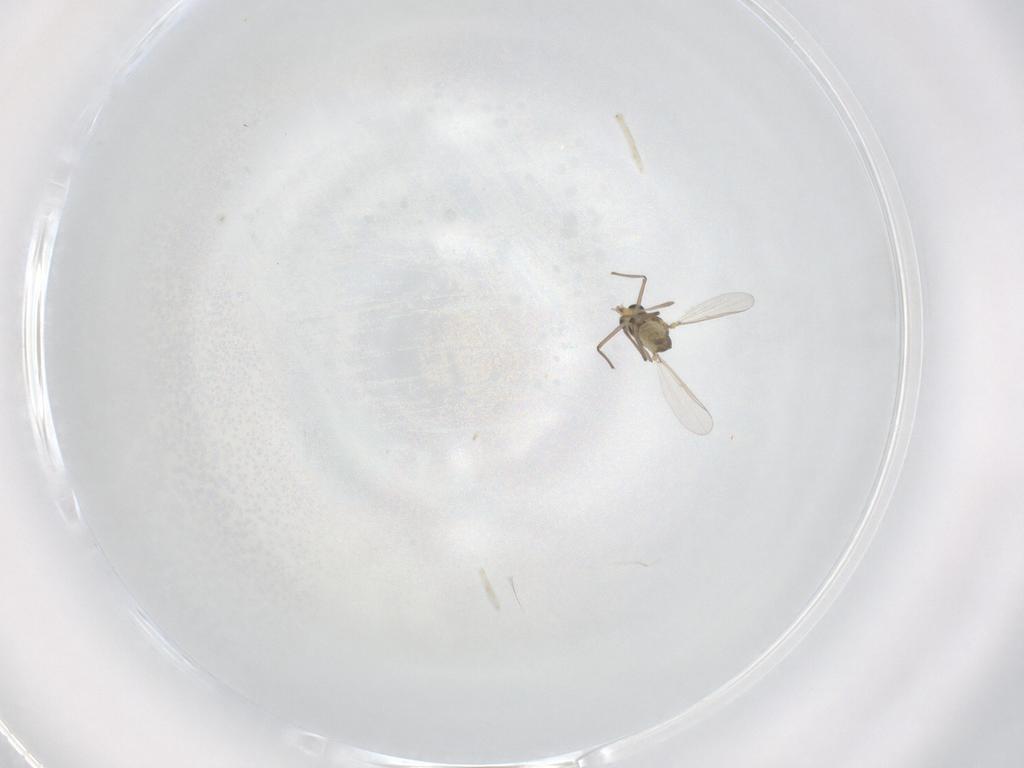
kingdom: Animalia
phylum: Arthropoda
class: Insecta
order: Diptera
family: Chironomidae
